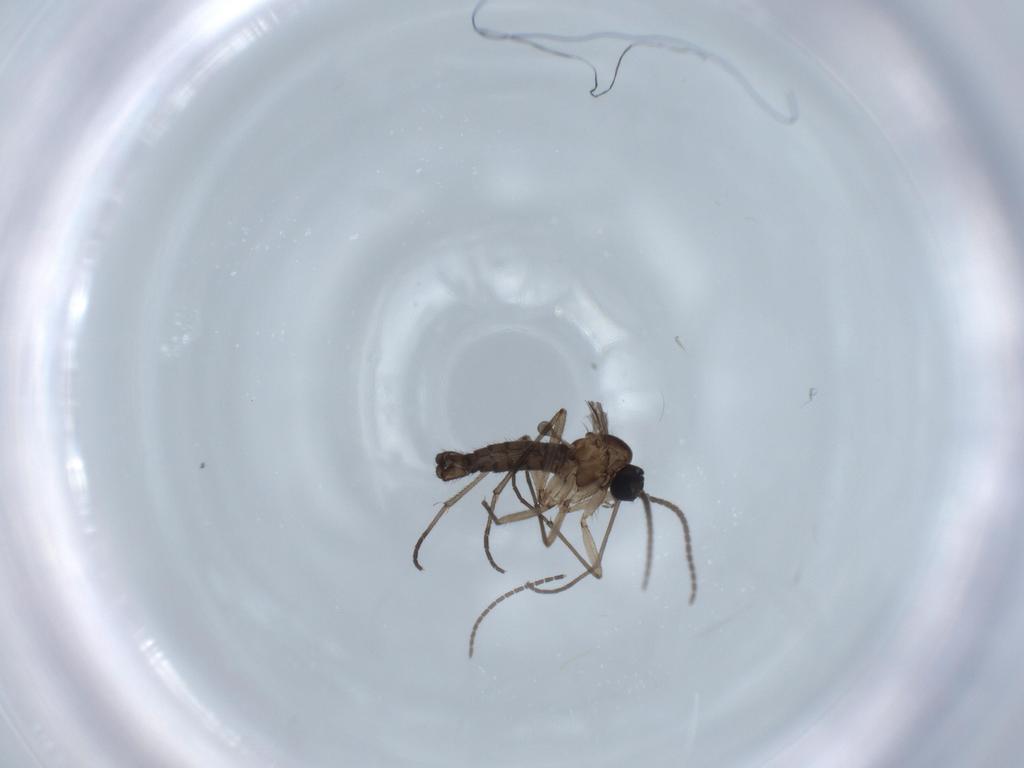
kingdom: Animalia
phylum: Arthropoda
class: Insecta
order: Diptera
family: Sciaridae
